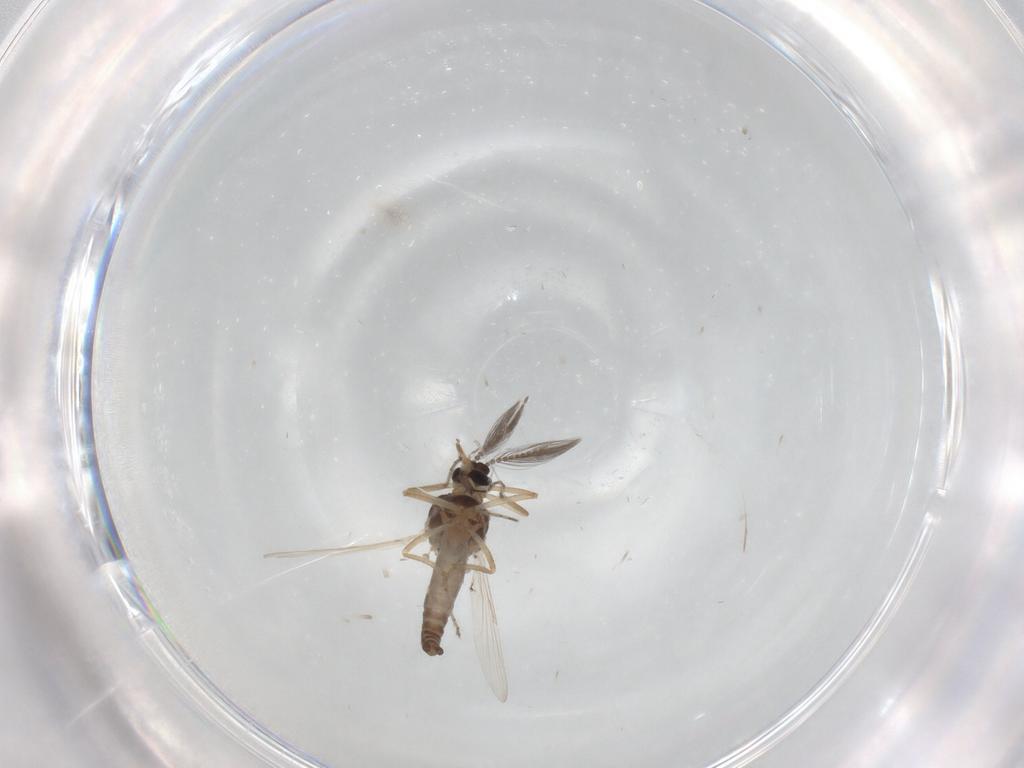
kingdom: Animalia
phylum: Arthropoda
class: Insecta
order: Diptera
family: Ceratopogonidae
